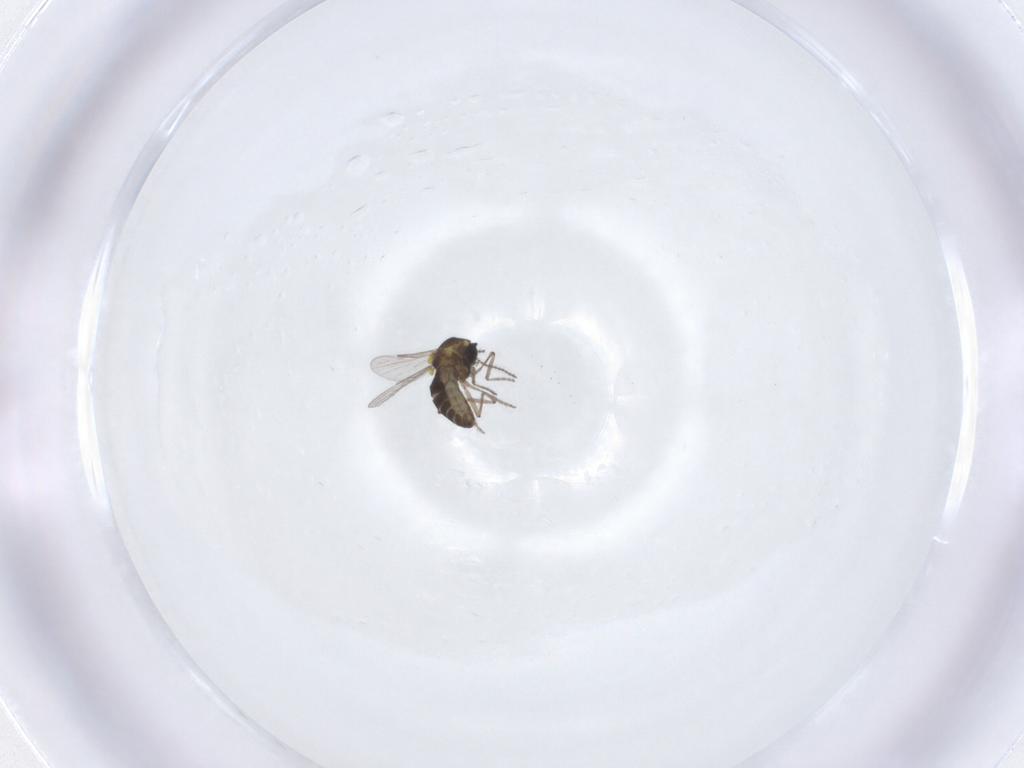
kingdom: Animalia
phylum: Arthropoda
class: Insecta
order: Diptera
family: Ceratopogonidae
